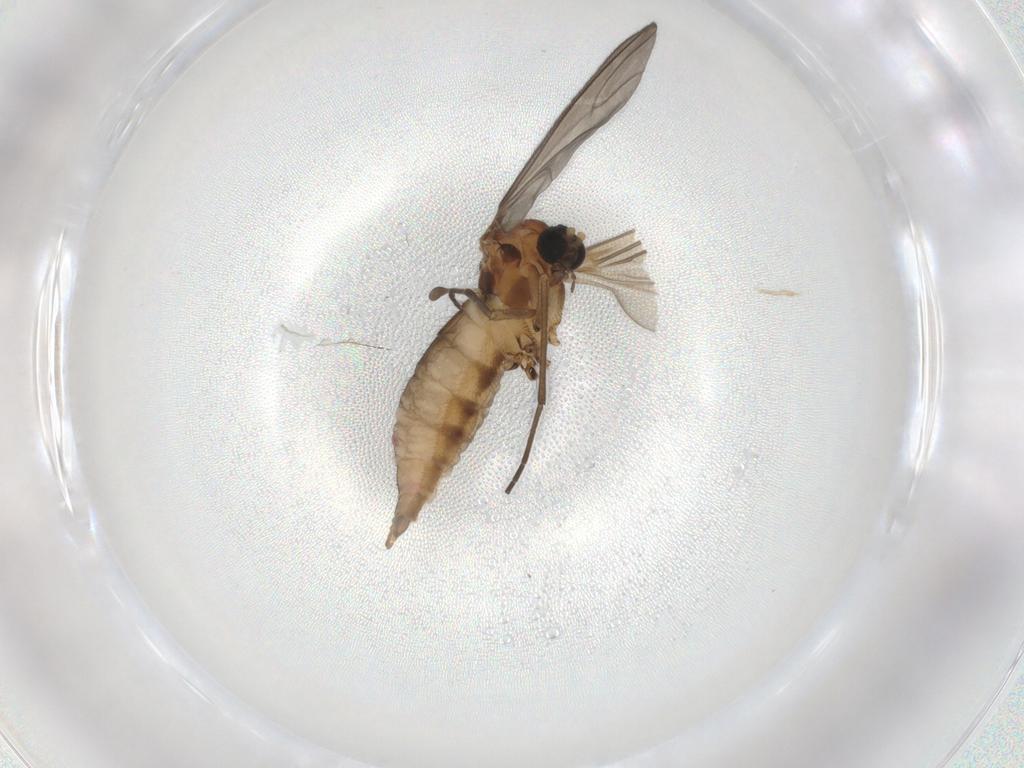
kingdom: Animalia
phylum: Arthropoda
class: Insecta
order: Diptera
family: Sciaridae
